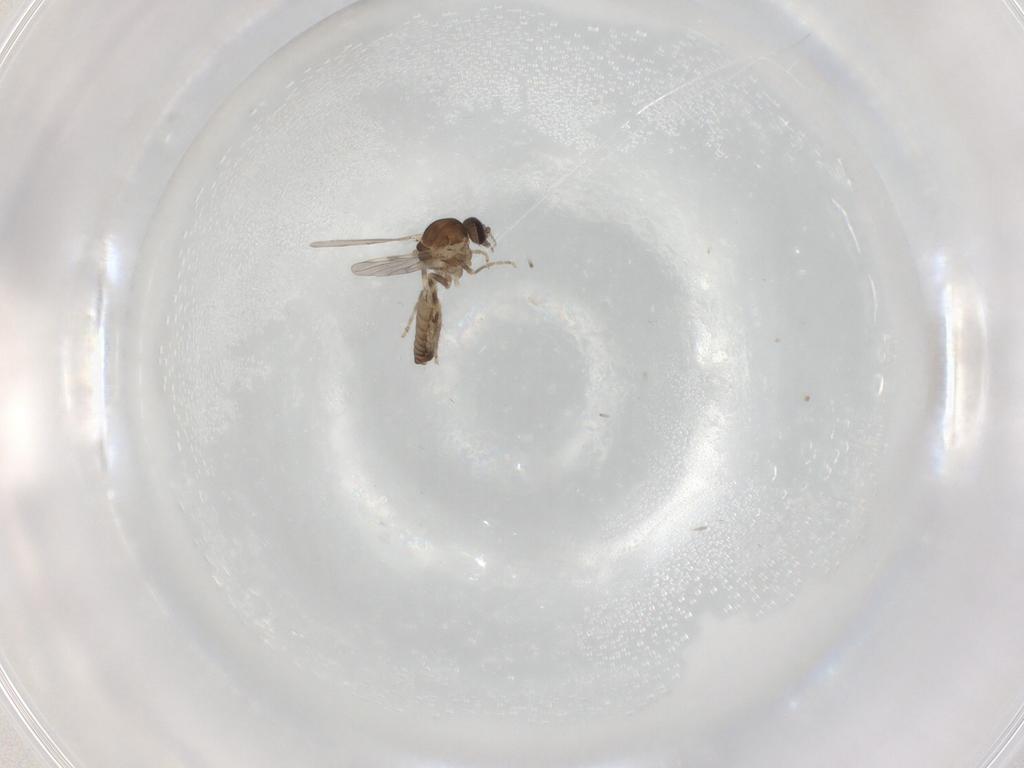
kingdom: Animalia
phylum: Arthropoda
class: Insecta
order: Diptera
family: Ceratopogonidae
